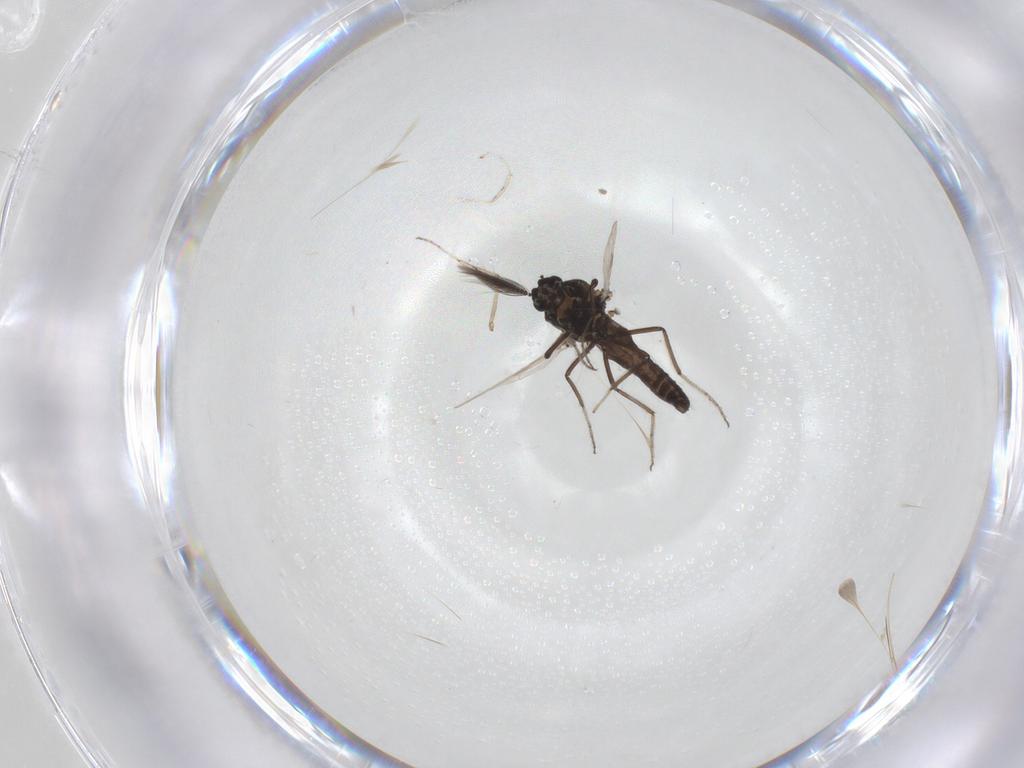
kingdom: Animalia
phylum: Arthropoda
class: Insecta
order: Diptera
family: Ceratopogonidae
